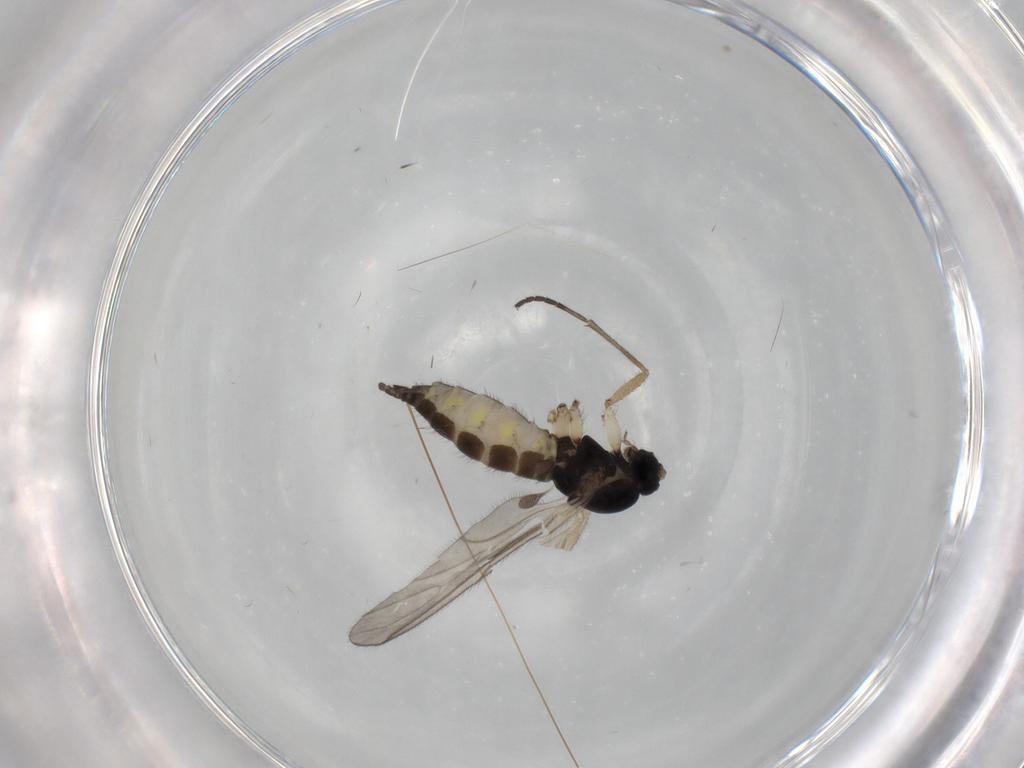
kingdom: Animalia
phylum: Arthropoda
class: Insecta
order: Diptera
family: Sciaridae
